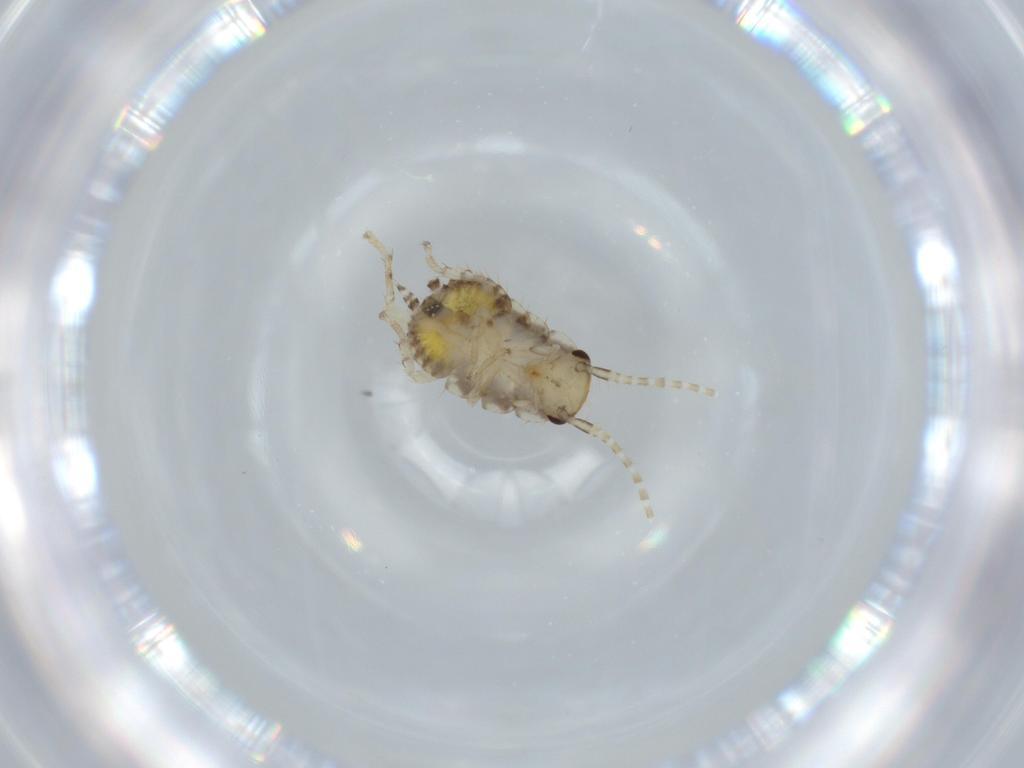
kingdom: Animalia
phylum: Arthropoda
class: Insecta
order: Blattodea
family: Ectobiidae
